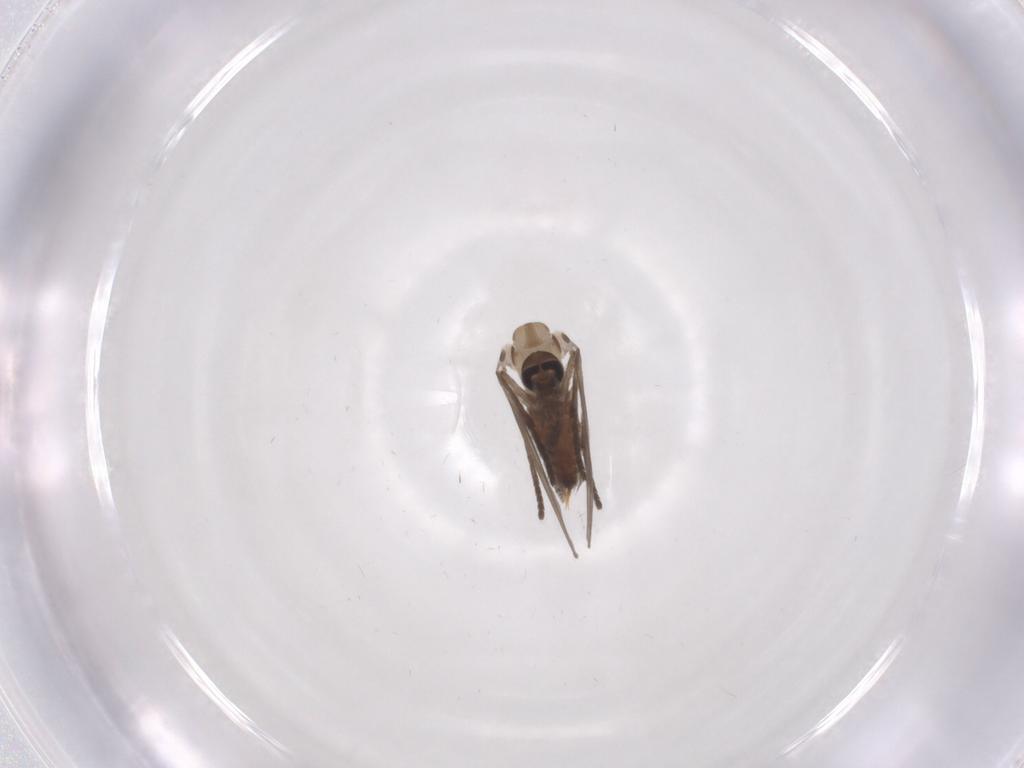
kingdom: Animalia
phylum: Arthropoda
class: Insecta
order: Diptera
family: Psychodidae
